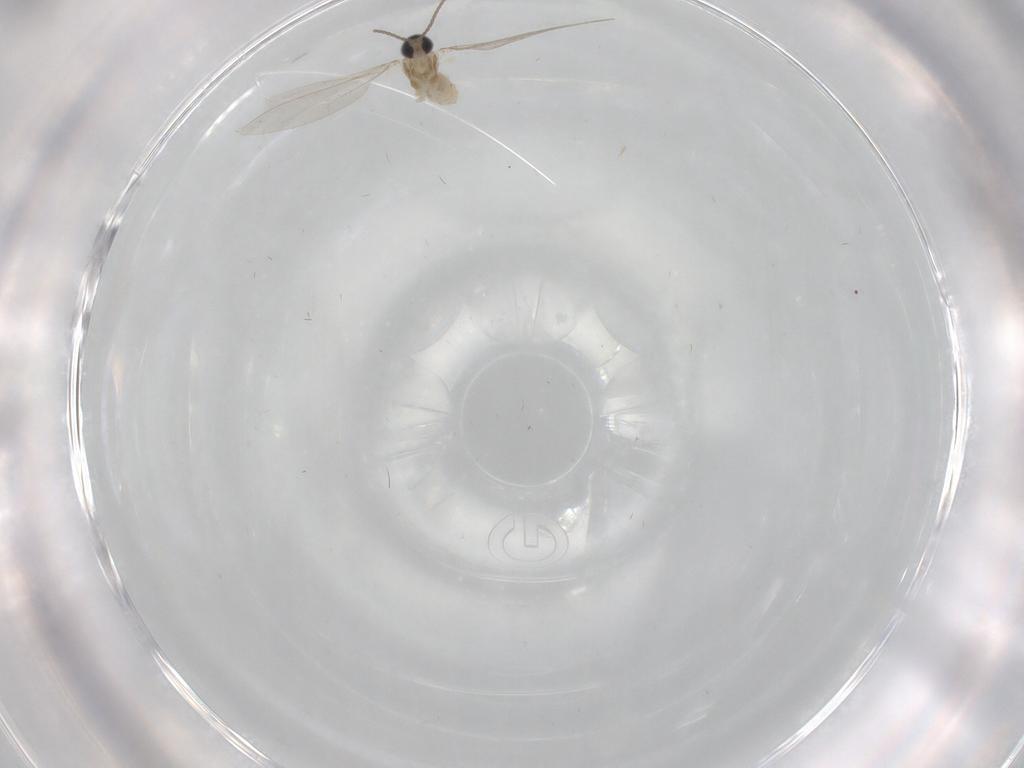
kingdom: Animalia
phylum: Arthropoda
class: Insecta
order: Diptera
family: Cecidomyiidae
